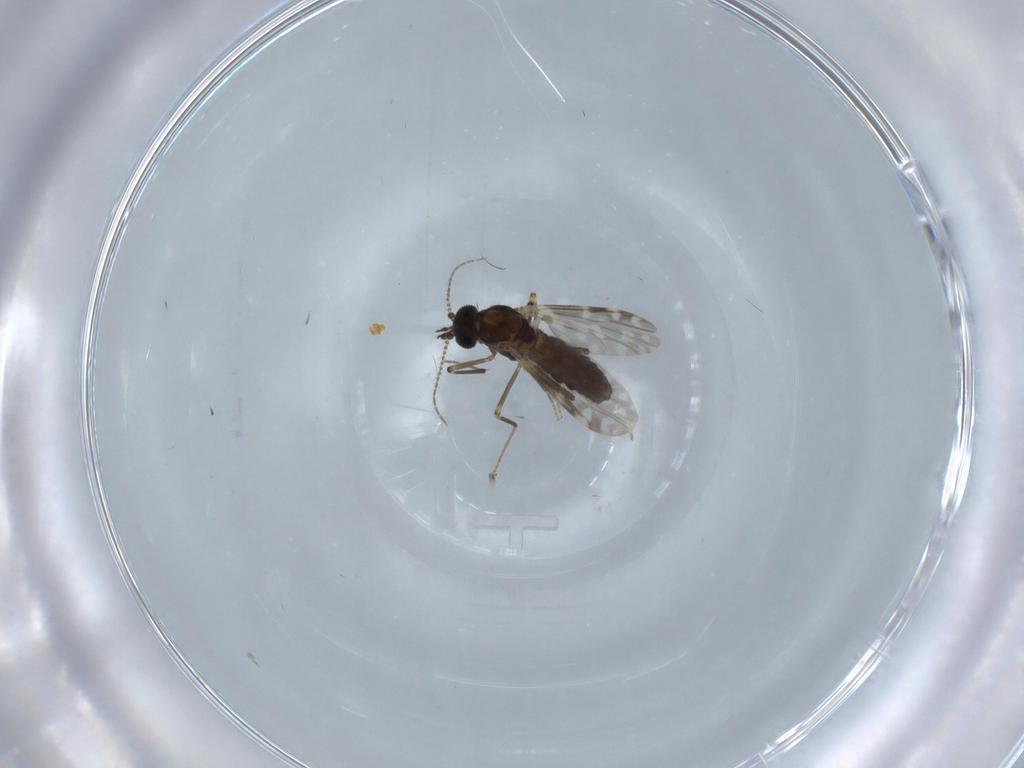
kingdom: Animalia
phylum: Arthropoda
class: Insecta
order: Diptera
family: Ceratopogonidae
